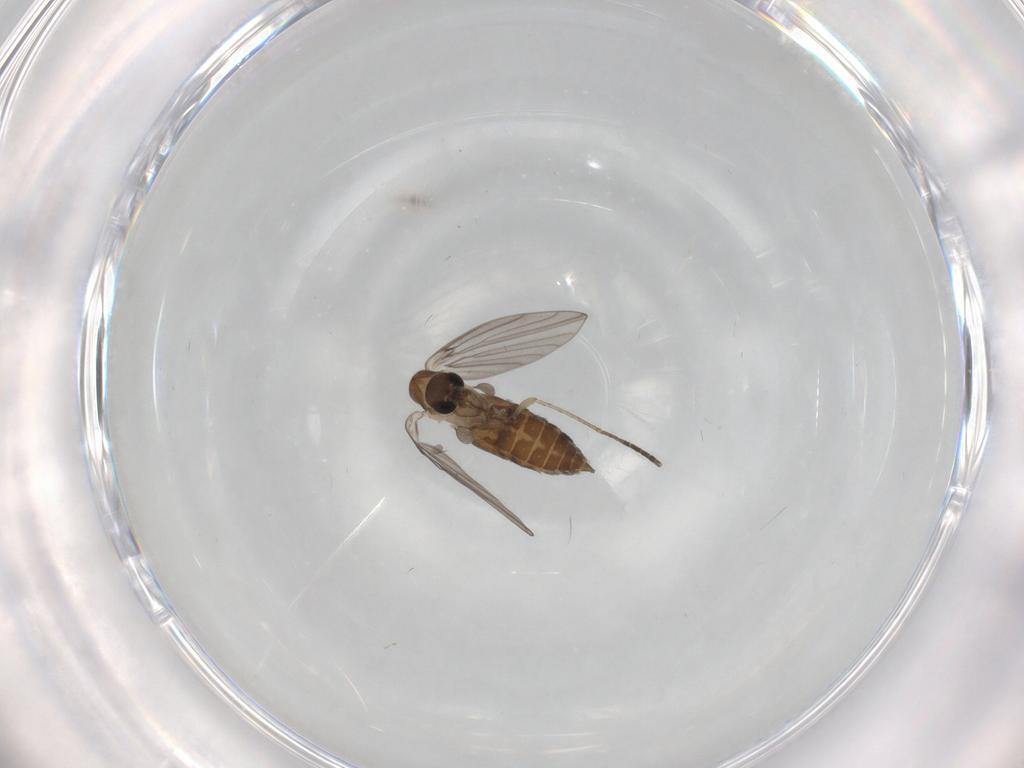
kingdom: Animalia
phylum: Arthropoda
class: Insecta
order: Diptera
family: Psychodidae
